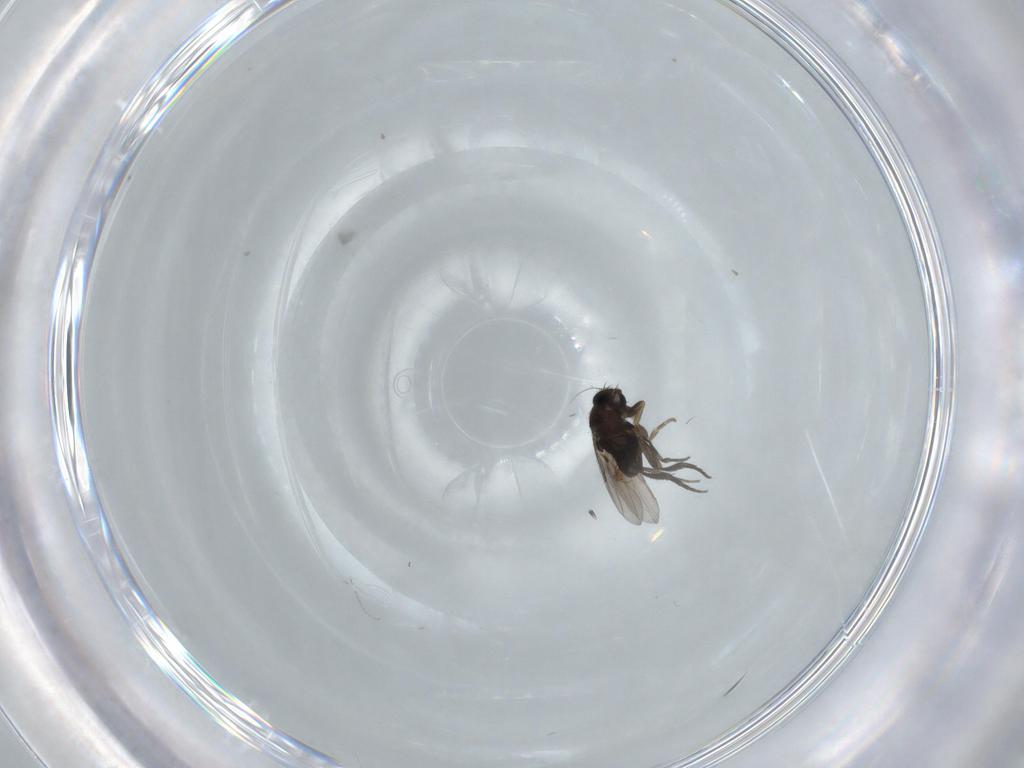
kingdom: Animalia
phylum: Arthropoda
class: Insecta
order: Diptera
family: Cecidomyiidae
